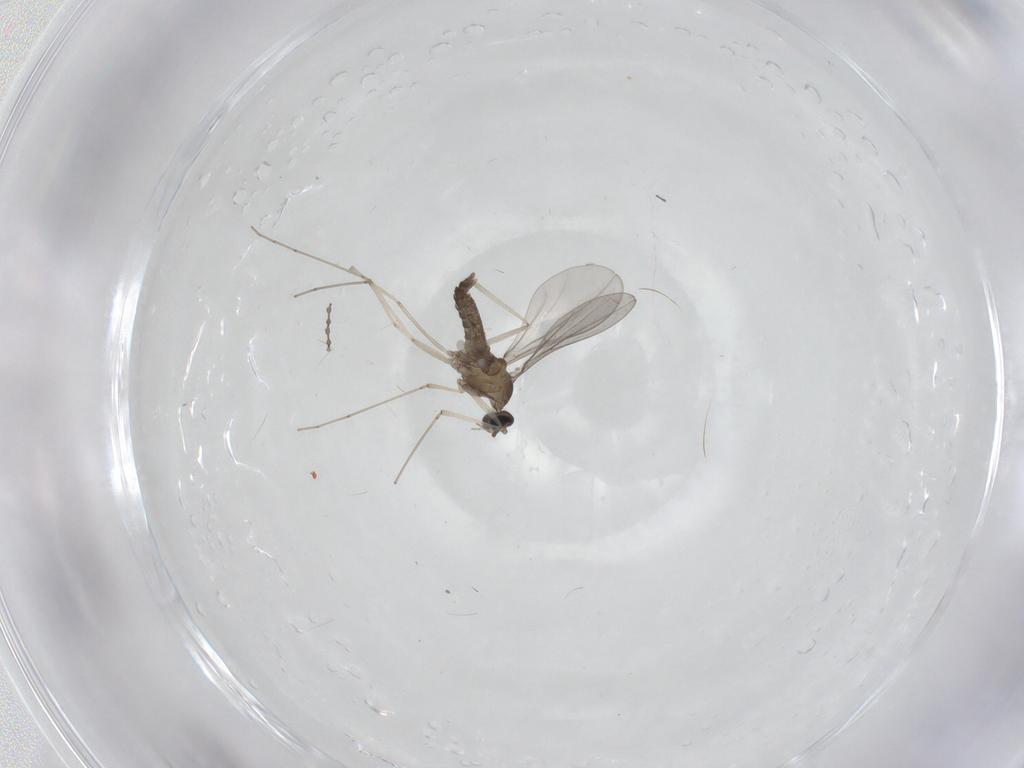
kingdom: Animalia
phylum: Arthropoda
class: Insecta
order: Diptera
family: Cecidomyiidae
